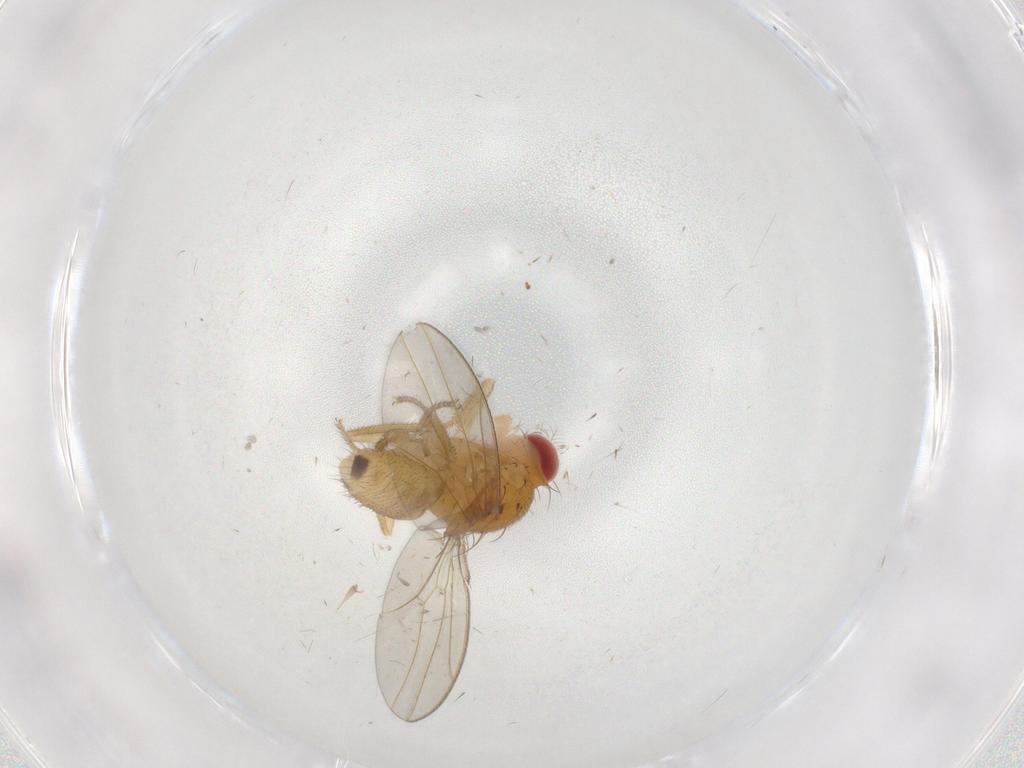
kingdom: Animalia
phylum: Arthropoda
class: Insecta
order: Diptera
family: Drosophilidae
